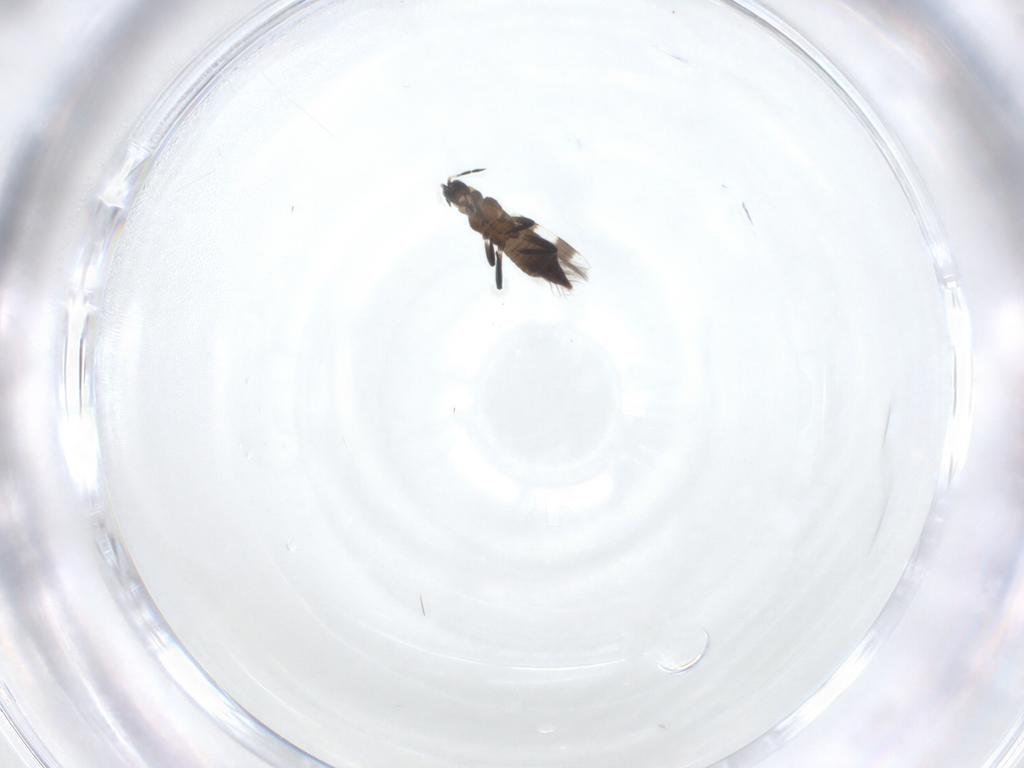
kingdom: Animalia
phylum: Arthropoda
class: Insecta
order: Thysanoptera
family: Aeolothripidae
